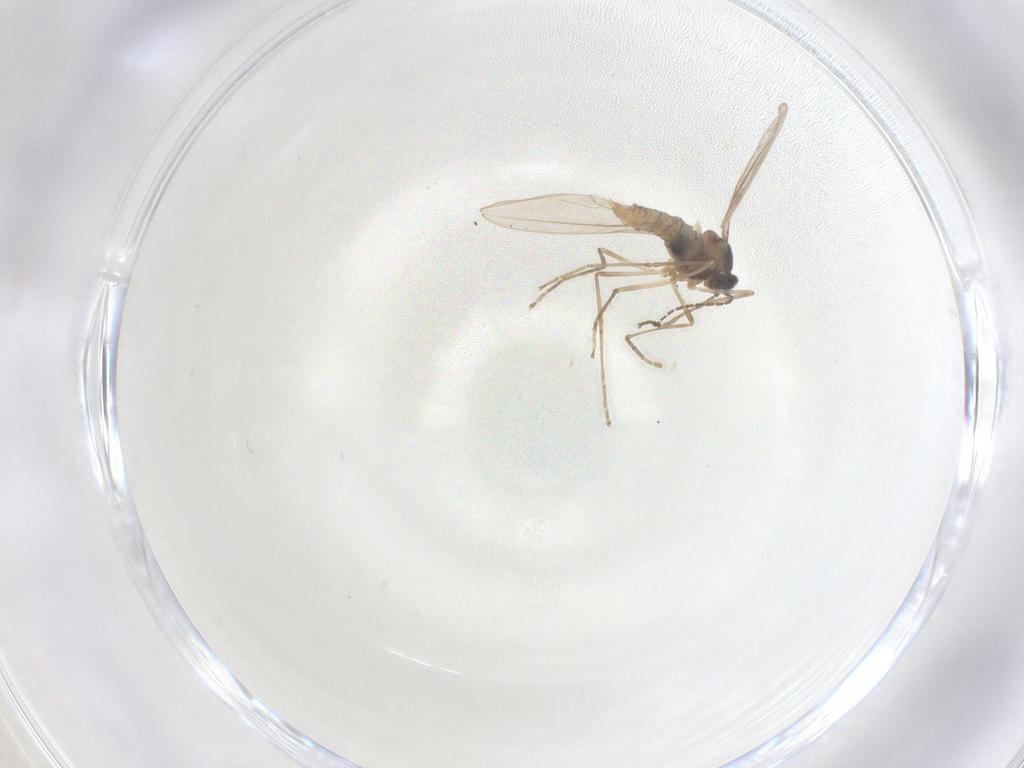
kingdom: Animalia
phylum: Arthropoda
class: Insecta
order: Diptera
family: Cecidomyiidae
